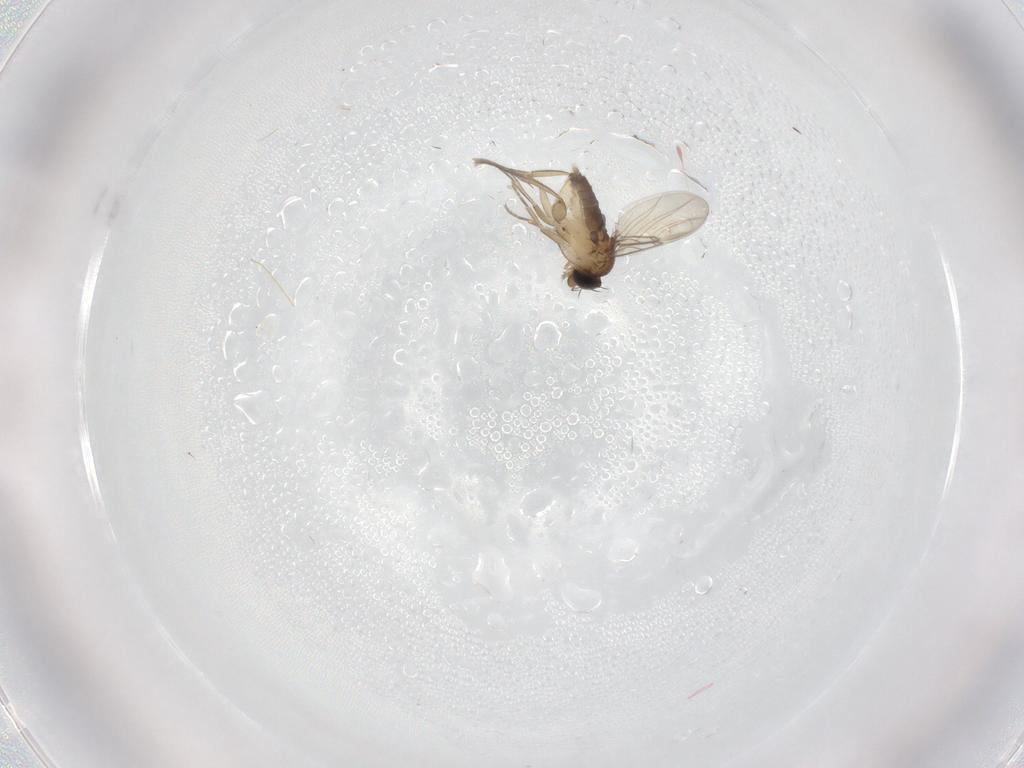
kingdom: Animalia
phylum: Arthropoda
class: Insecta
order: Diptera
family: Phoridae
